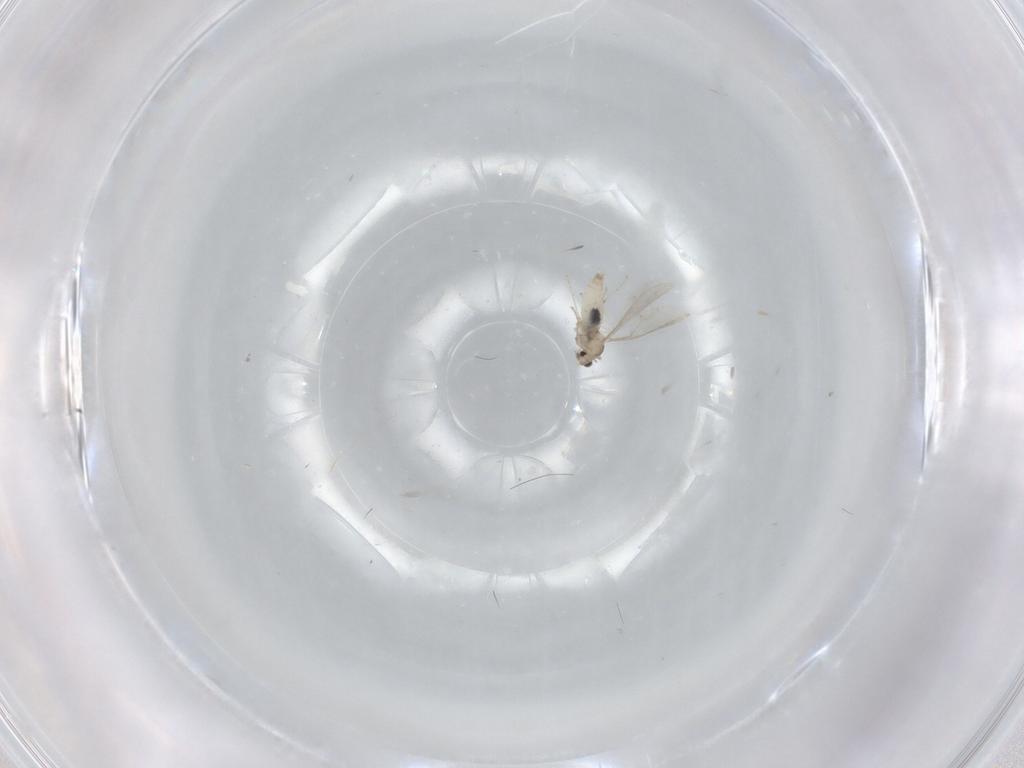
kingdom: Animalia
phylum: Arthropoda
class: Insecta
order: Diptera
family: Cecidomyiidae
